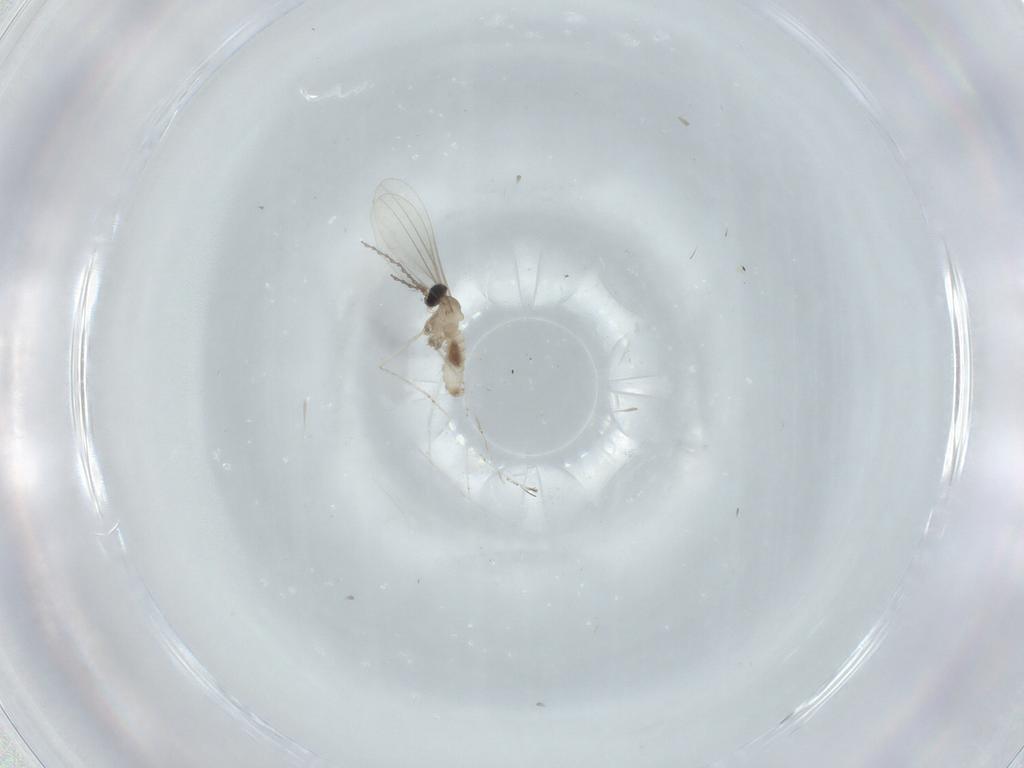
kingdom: Animalia
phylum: Arthropoda
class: Insecta
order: Diptera
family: Cecidomyiidae
